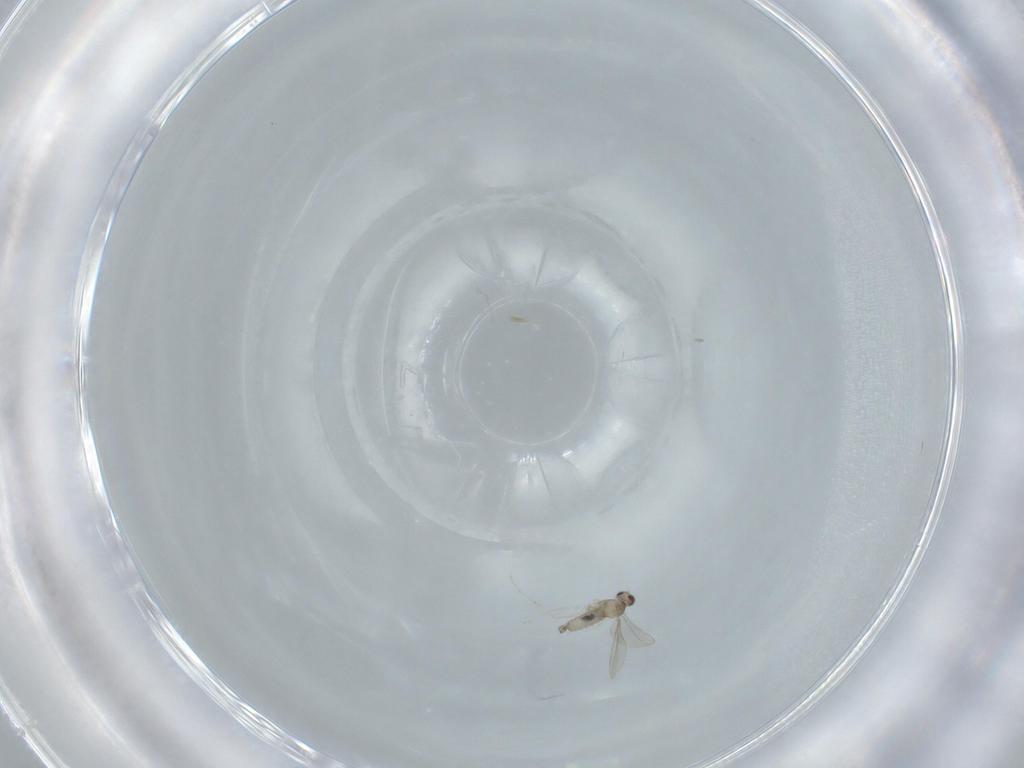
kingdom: Animalia
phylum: Arthropoda
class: Insecta
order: Diptera
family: Cecidomyiidae
